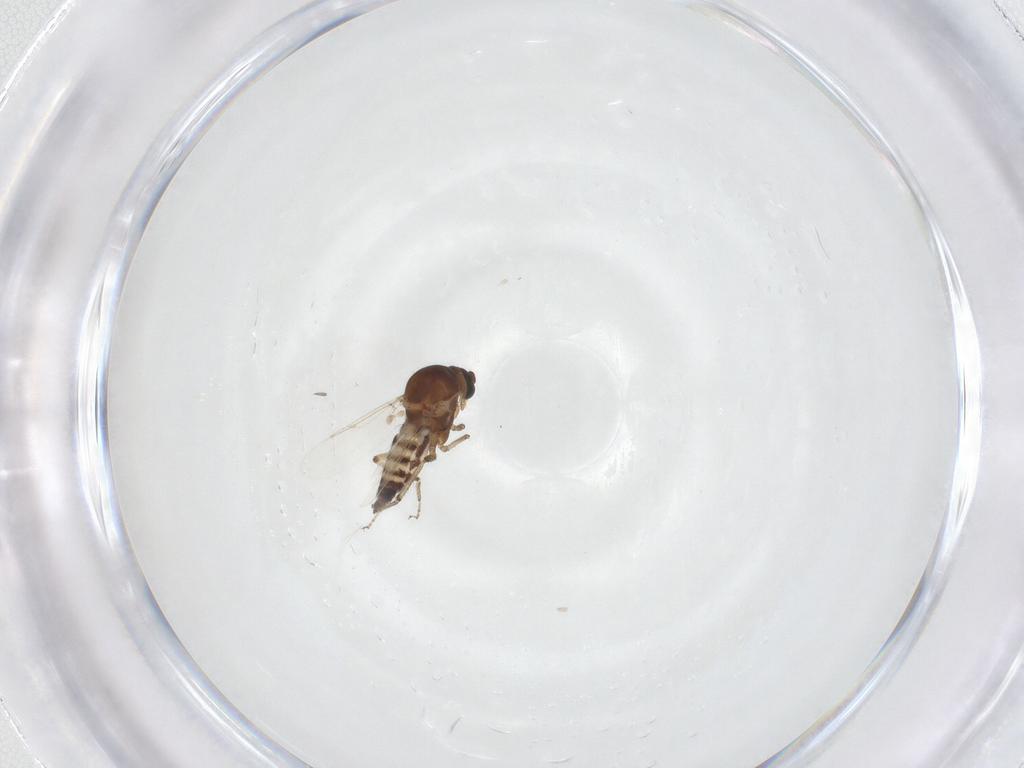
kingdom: Animalia
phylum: Arthropoda
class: Insecta
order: Diptera
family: Ceratopogonidae
